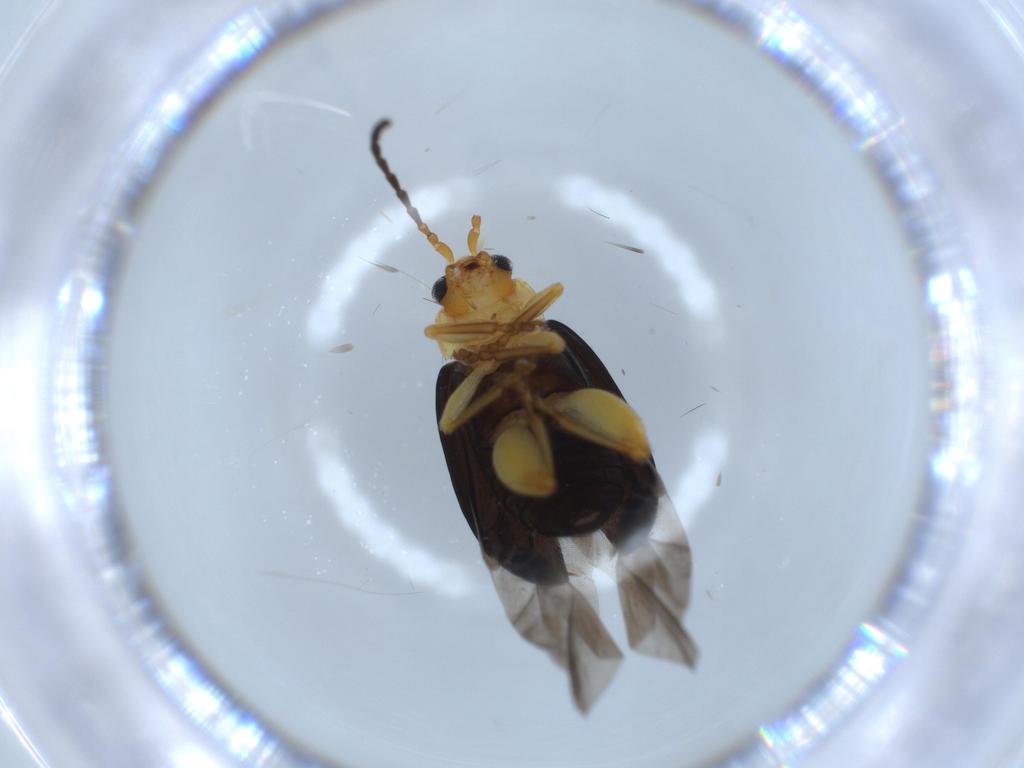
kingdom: Animalia
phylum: Arthropoda
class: Insecta
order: Coleoptera
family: Chrysomelidae
